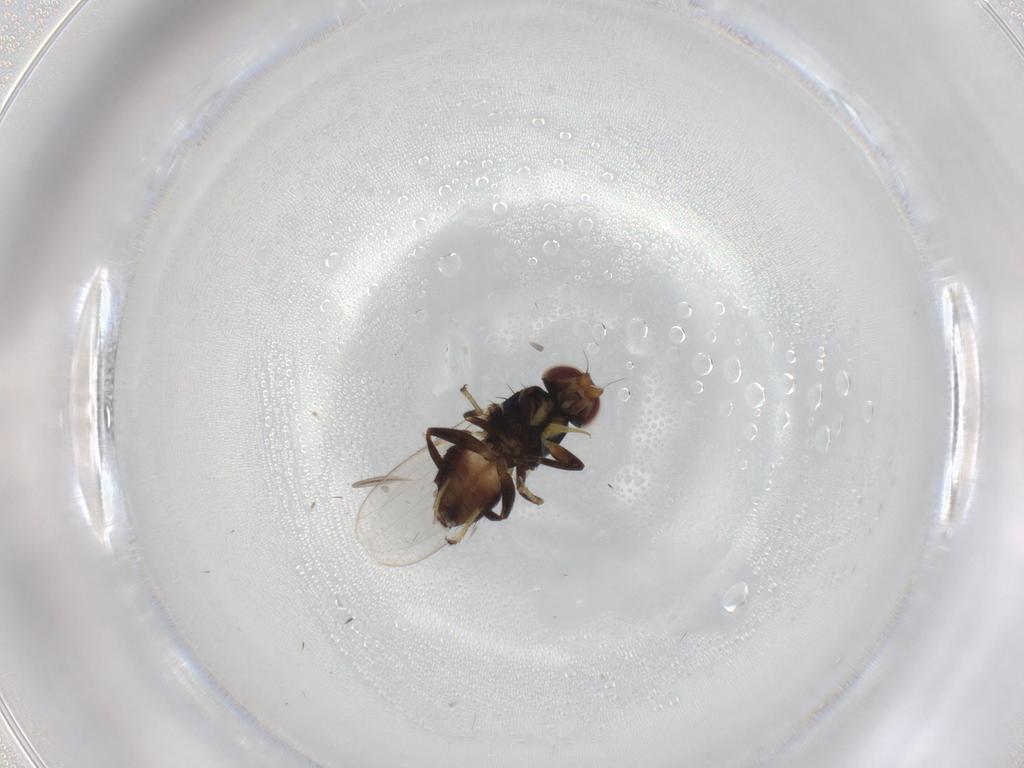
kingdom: Animalia
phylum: Arthropoda
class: Insecta
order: Diptera
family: Chloropidae
